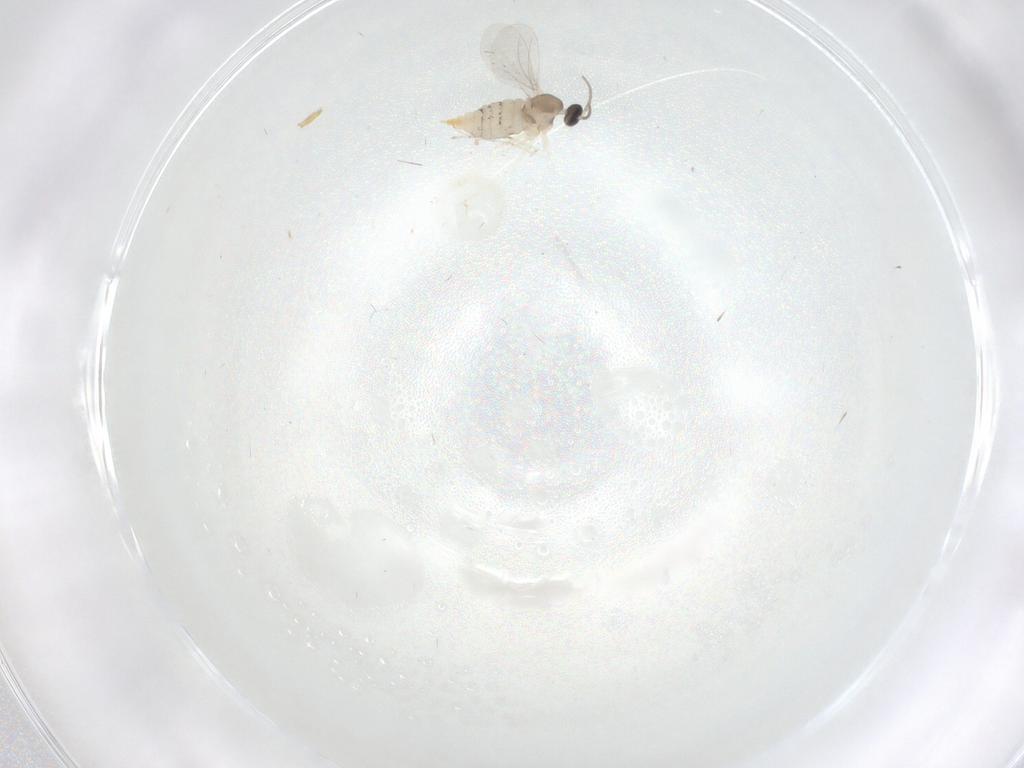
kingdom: Animalia
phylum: Arthropoda
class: Insecta
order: Diptera
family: Cecidomyiidae
